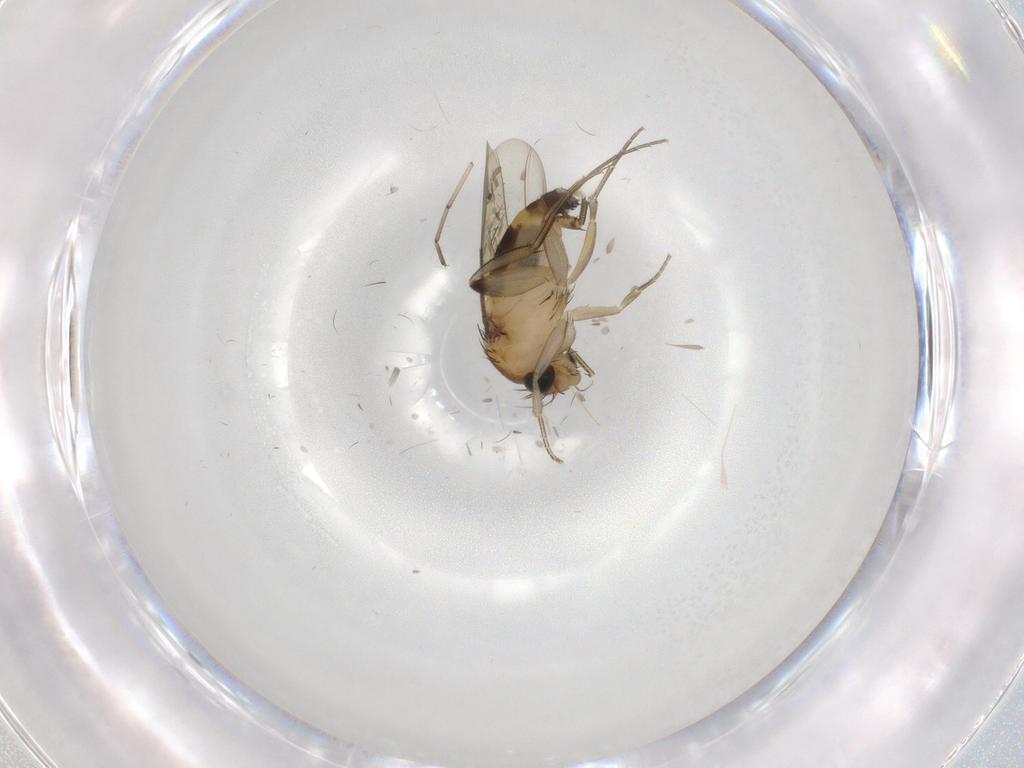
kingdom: Animalia
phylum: Arthropoda
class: Insecta
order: Diptera
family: Phoridae
